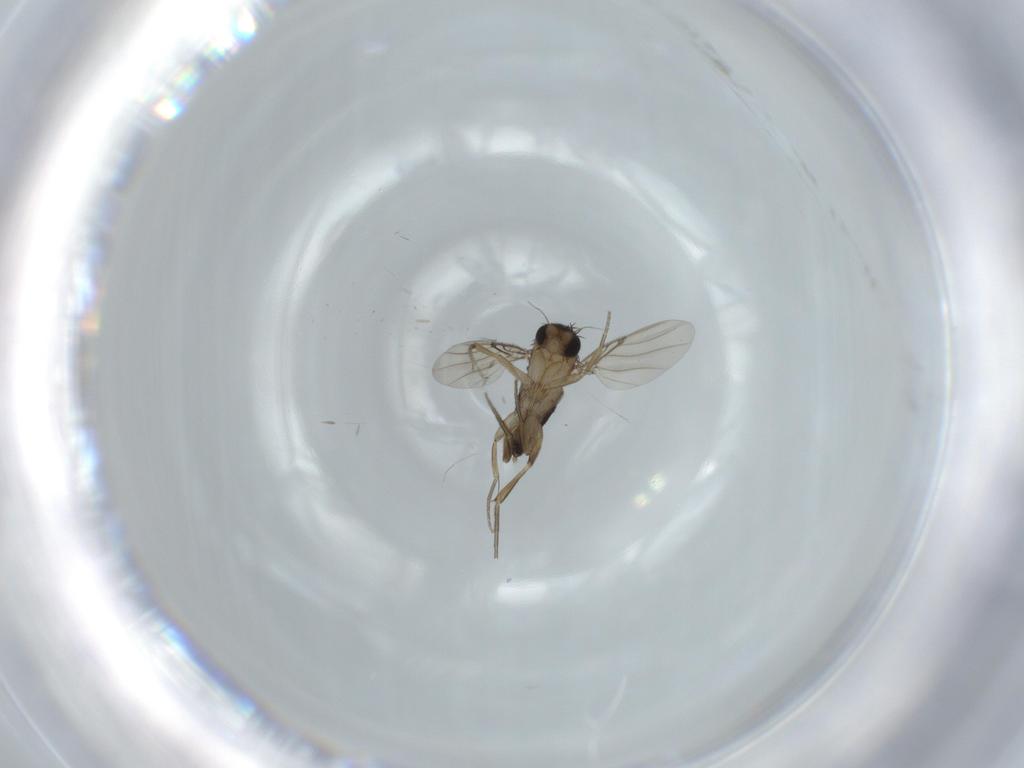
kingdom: Animalia
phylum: Arthropoda
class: Insecta
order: Diptera
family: Phoridae
